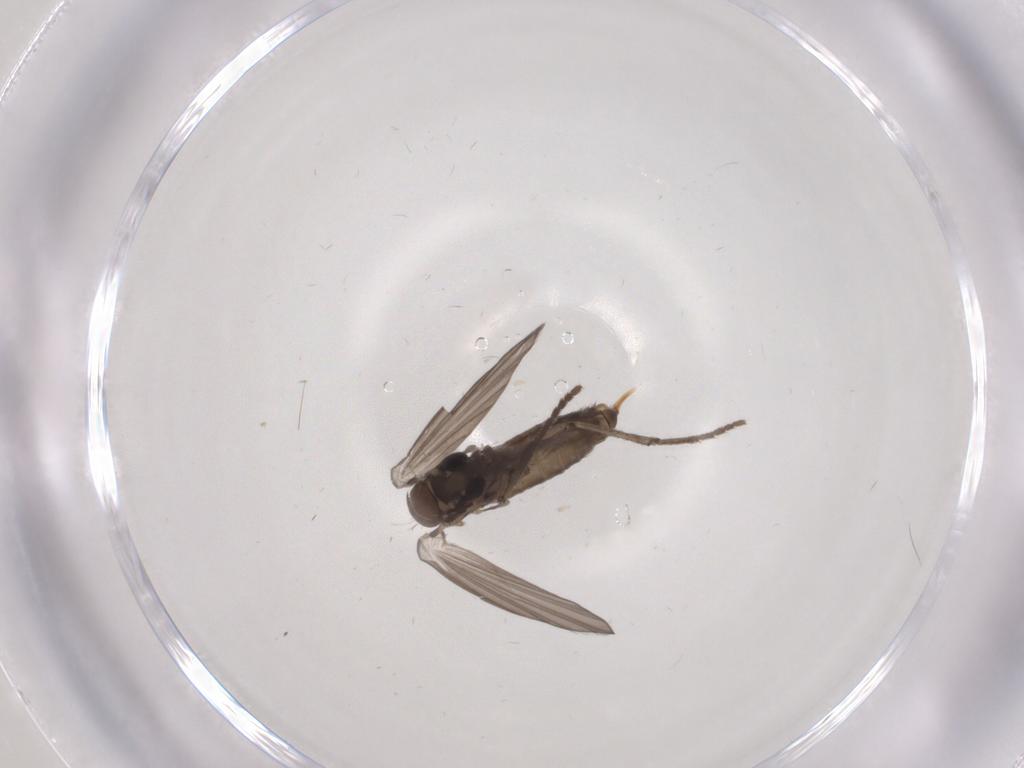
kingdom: Animalia
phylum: Arthropoda
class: Insecta
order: Diptera
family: Psychodidae
